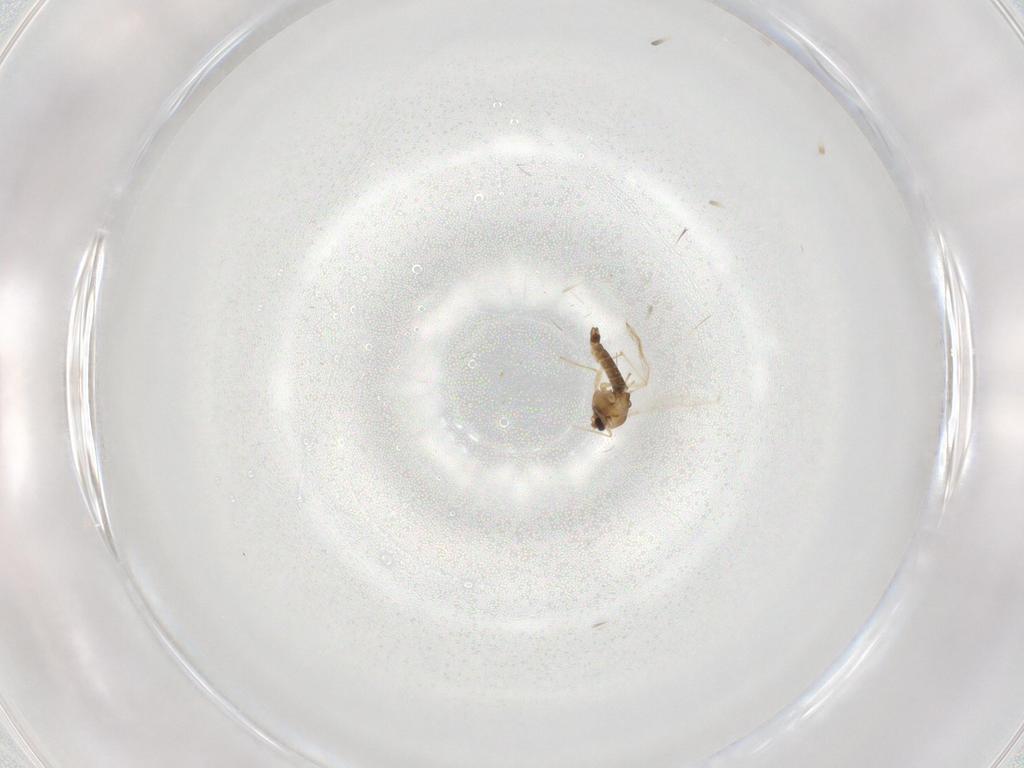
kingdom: Animalia
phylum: Arthropoda
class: Insecta
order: Diptera
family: Chironomidae
